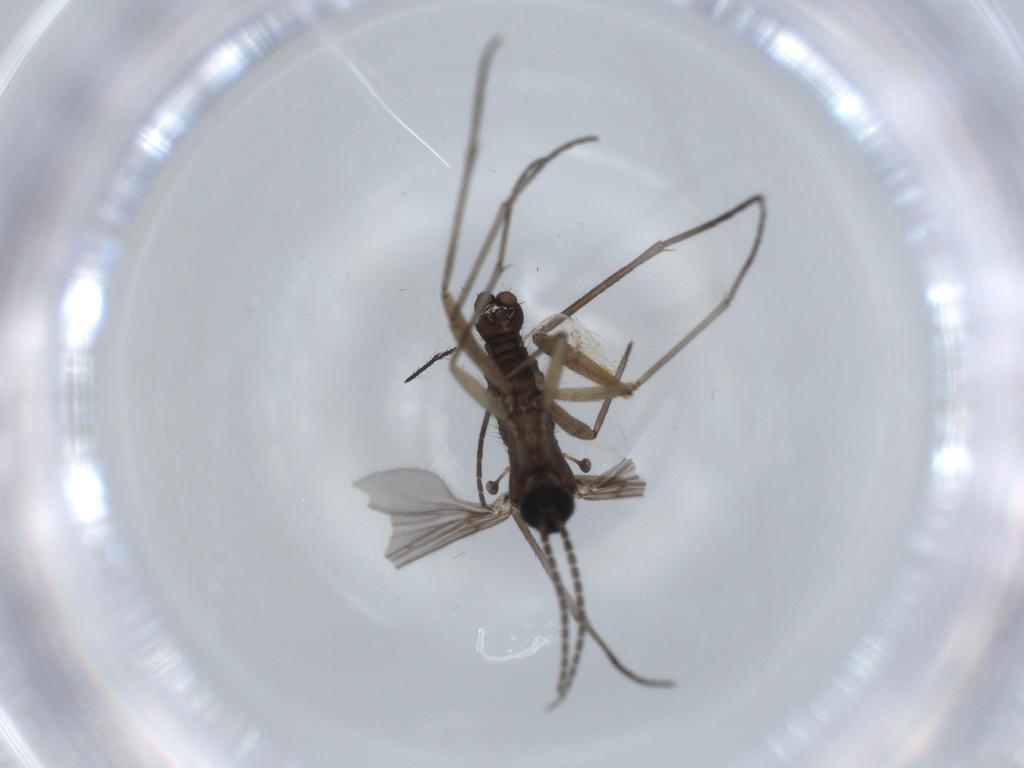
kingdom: Animalia
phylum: Arthropoda
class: Insecta
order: Diptera
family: Sciaridae
